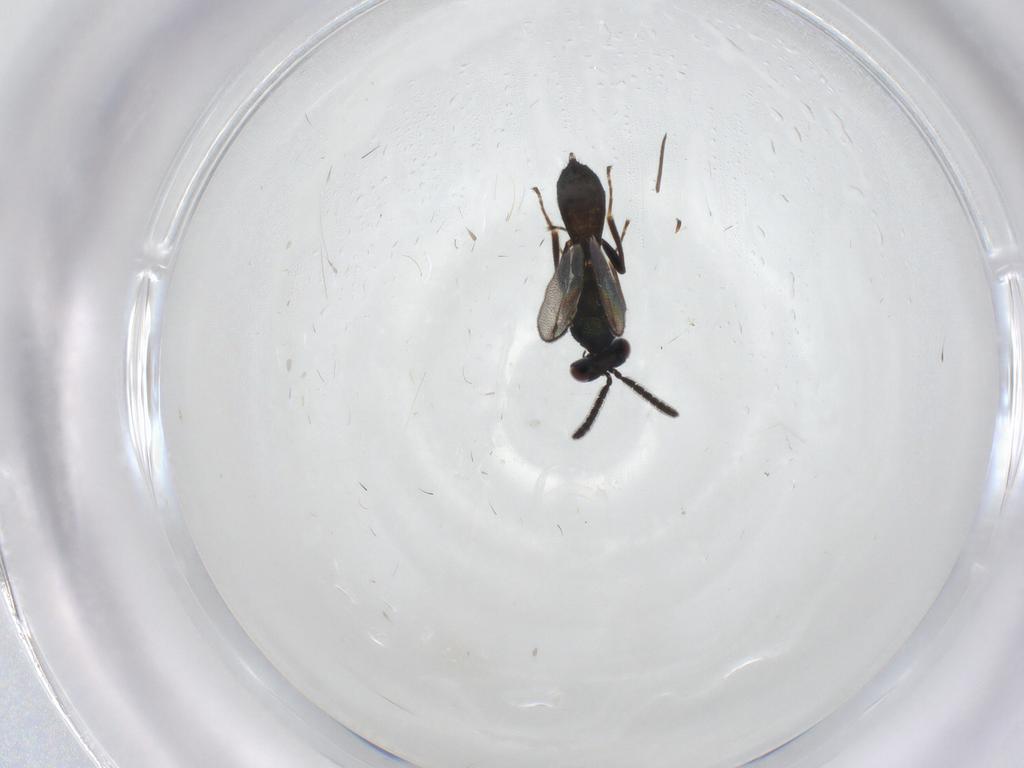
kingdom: Animalia
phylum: Arthropoda
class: Insecta
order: Hymenoptera
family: Pteromalidae
